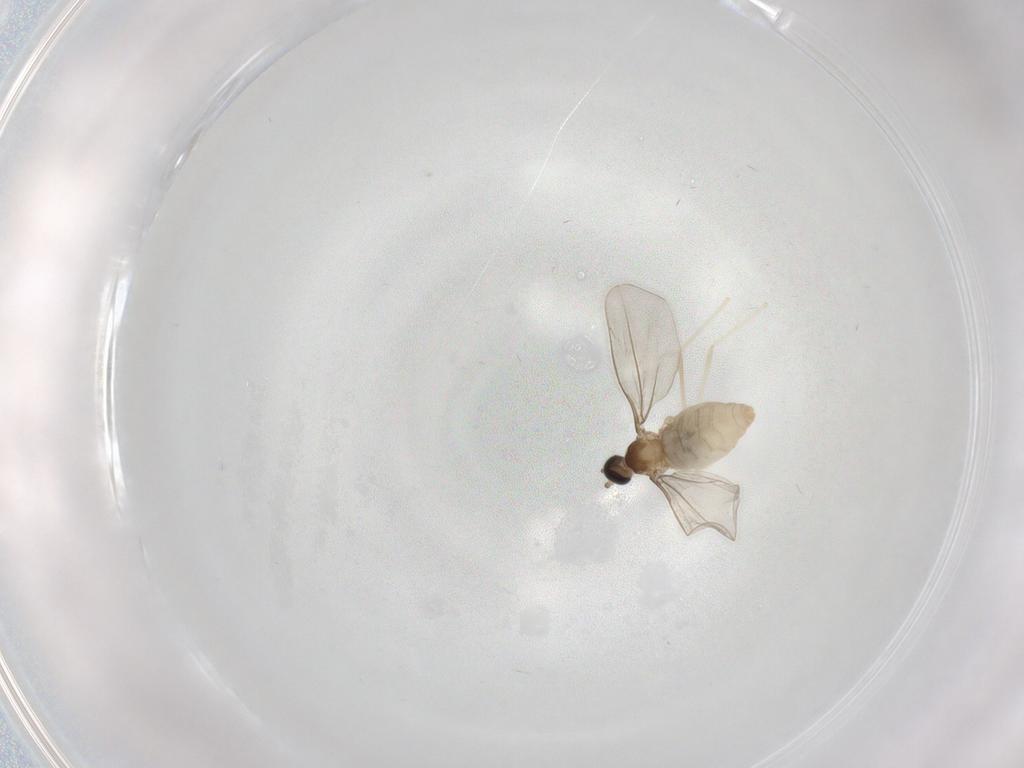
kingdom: Animalia
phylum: Arthropoda
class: Insecta
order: Diptera
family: Cecidomyiidae
